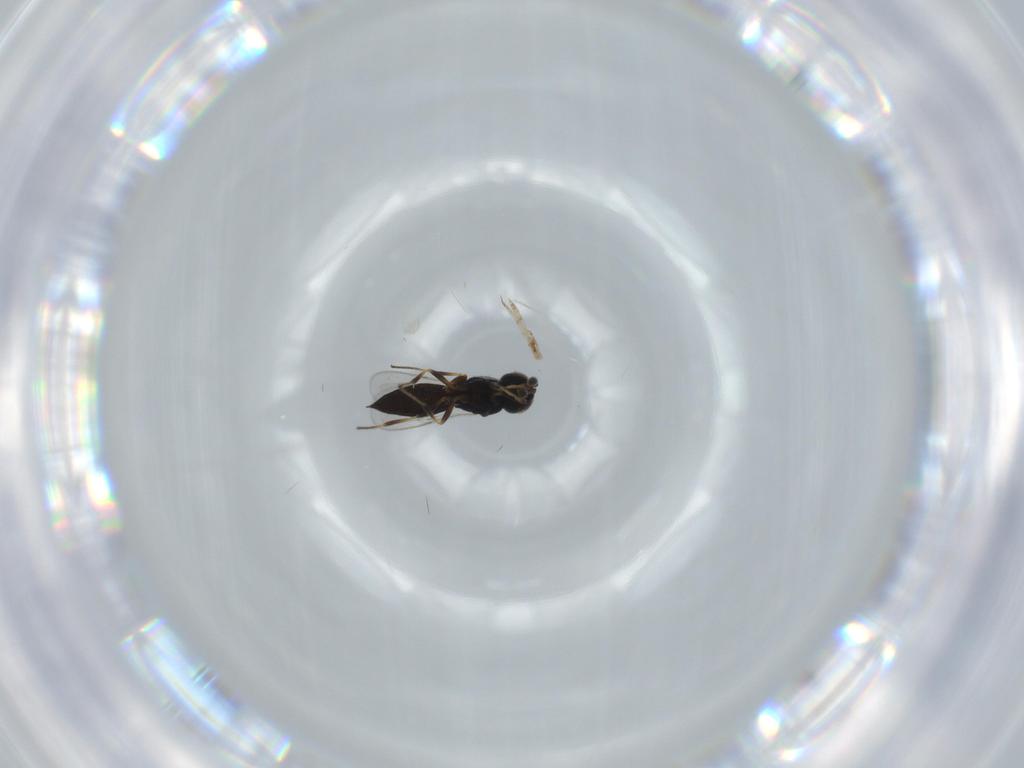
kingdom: Animalia
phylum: Arthropoda
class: Insecta
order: Hymenoptera
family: Scelionidae
